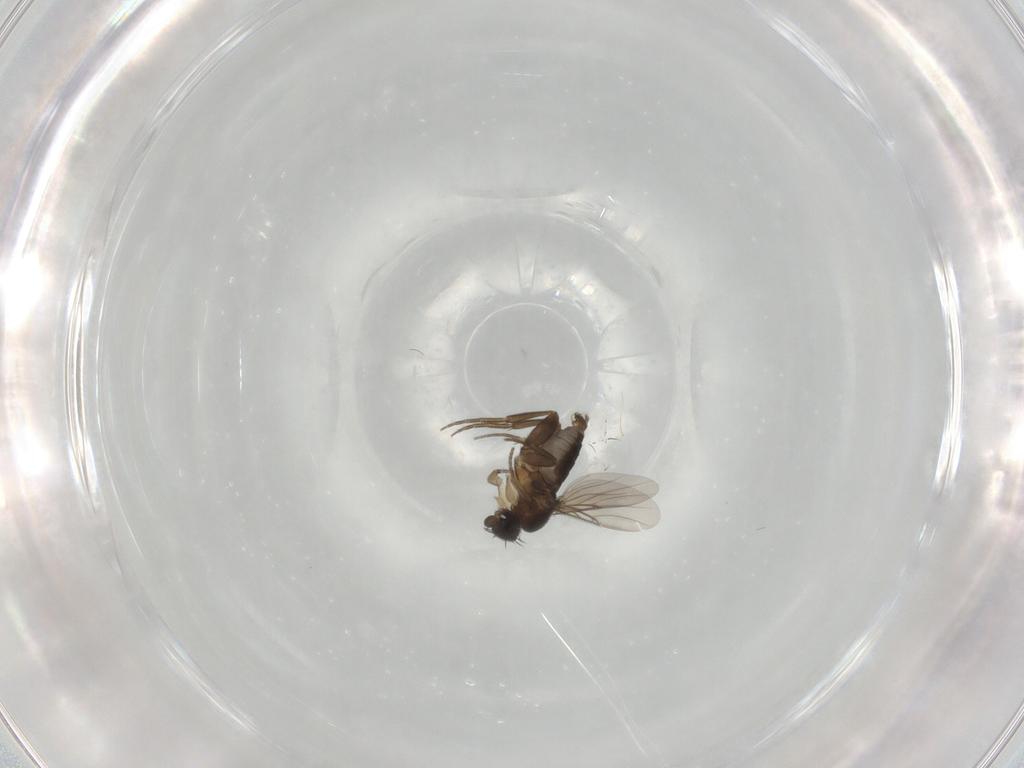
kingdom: Animalia
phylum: Arthropoda
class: Insecta
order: Diptera
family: Phoridae
